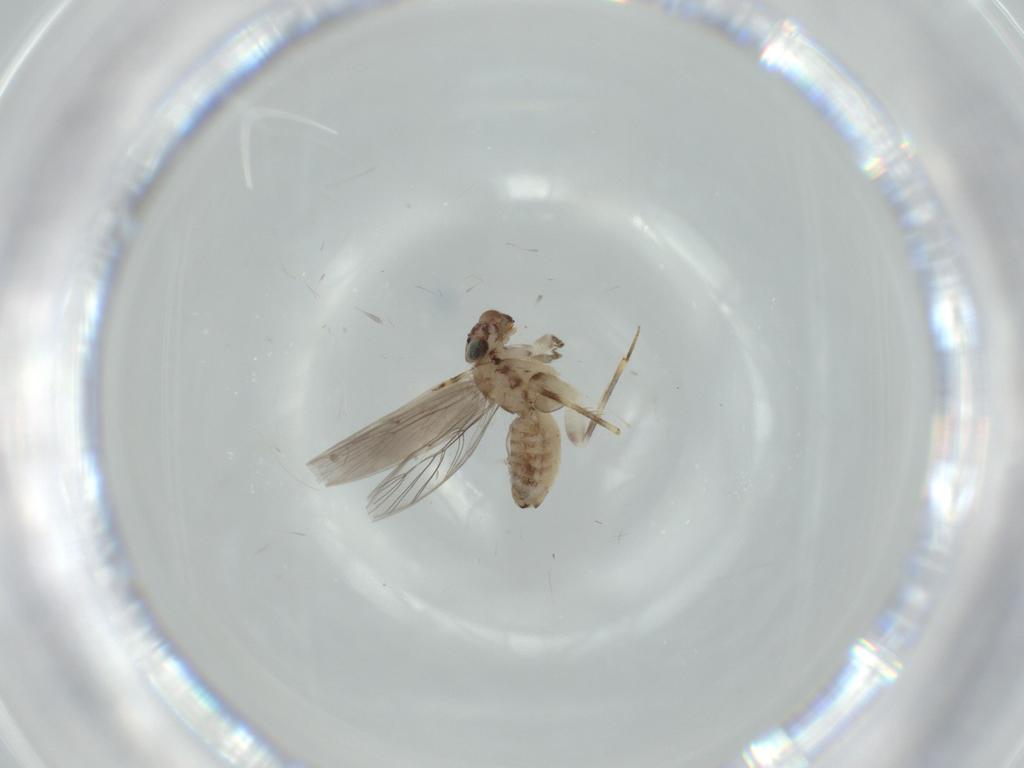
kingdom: Animalia
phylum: Arthropoda
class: Insecta
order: Psocodea
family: Lepidopsocidae
